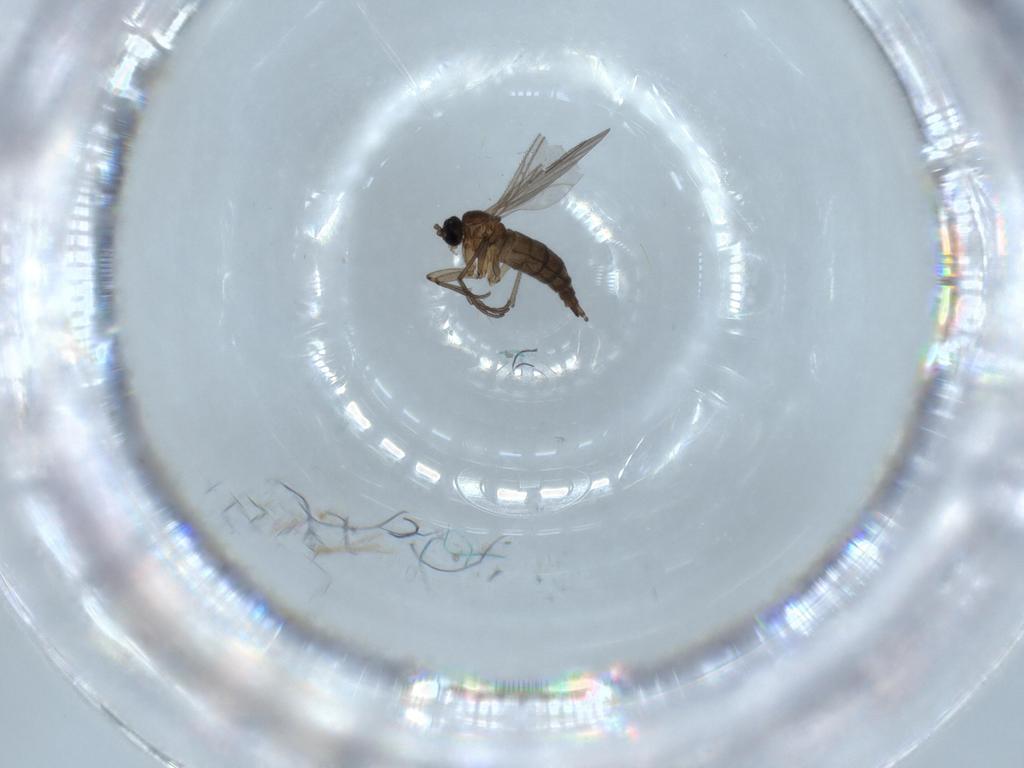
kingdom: Animalia
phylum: Arthropoda
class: Insecta
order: Diptera
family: Sciaridae
